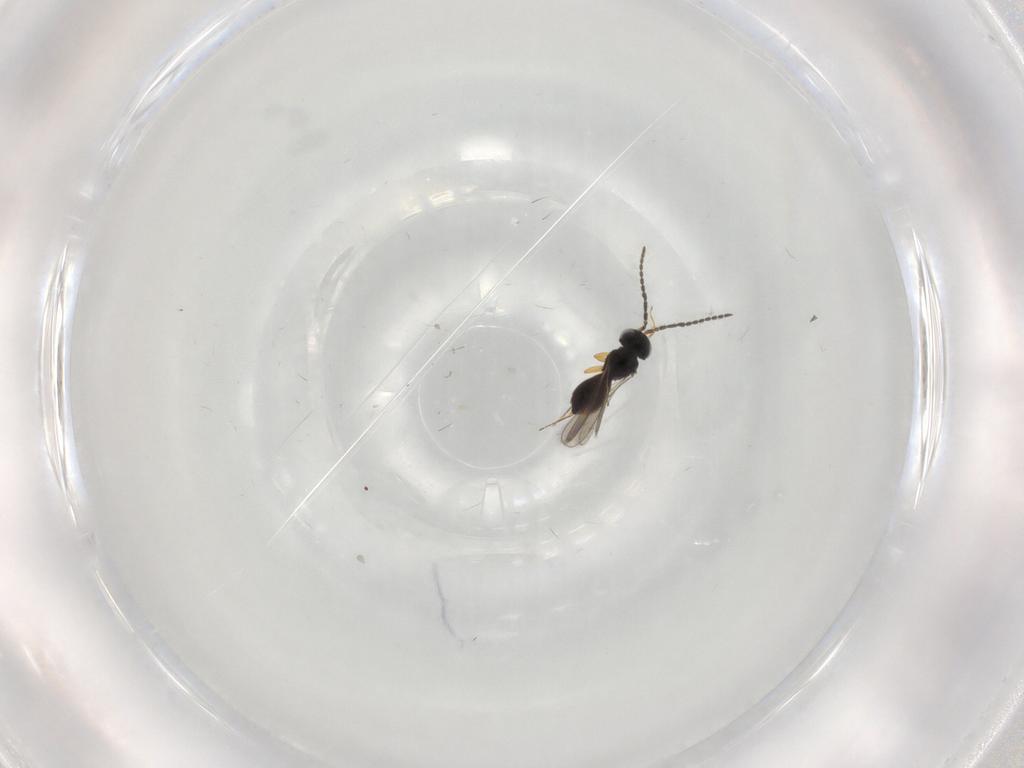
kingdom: Animalia
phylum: Arthropoda
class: Insecta
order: Hymenoptera
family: Scelionidae
